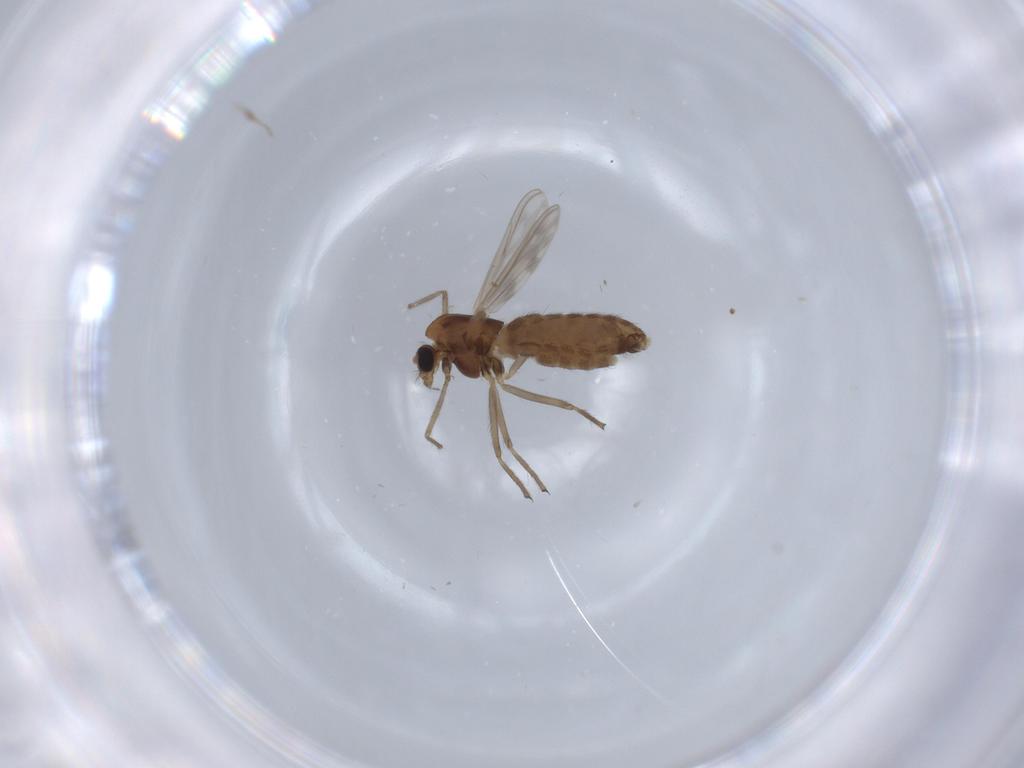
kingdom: Animalia
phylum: Arthropoda
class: Insecta
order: Diptera
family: Chironomidae
